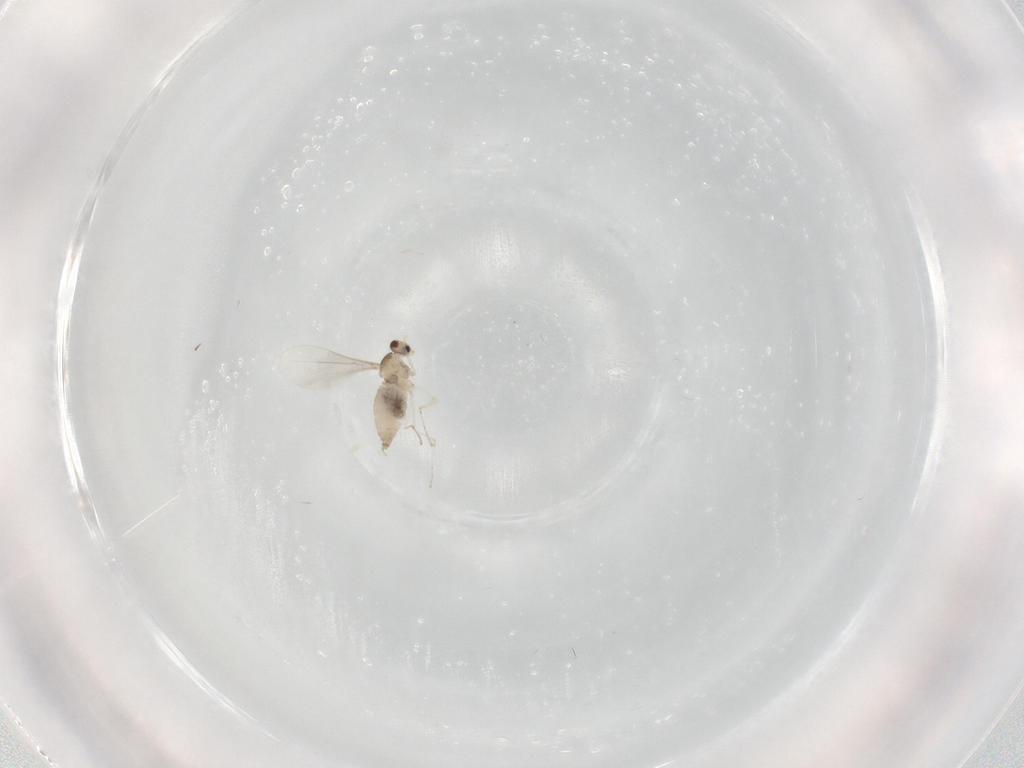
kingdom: Animalia
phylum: Arthropoda
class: Insecta
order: Diptera
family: Cecidomyiidae
